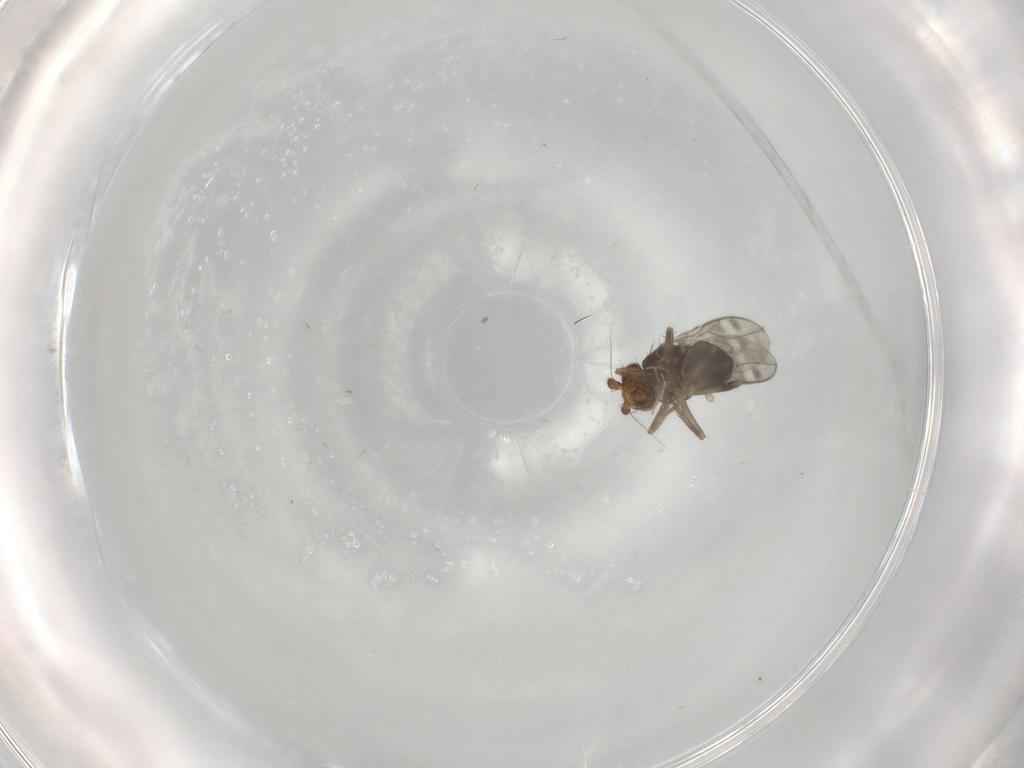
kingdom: Animalia
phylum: Arthropoda
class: Insecta
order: Diptera
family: Sphaeroceridae
